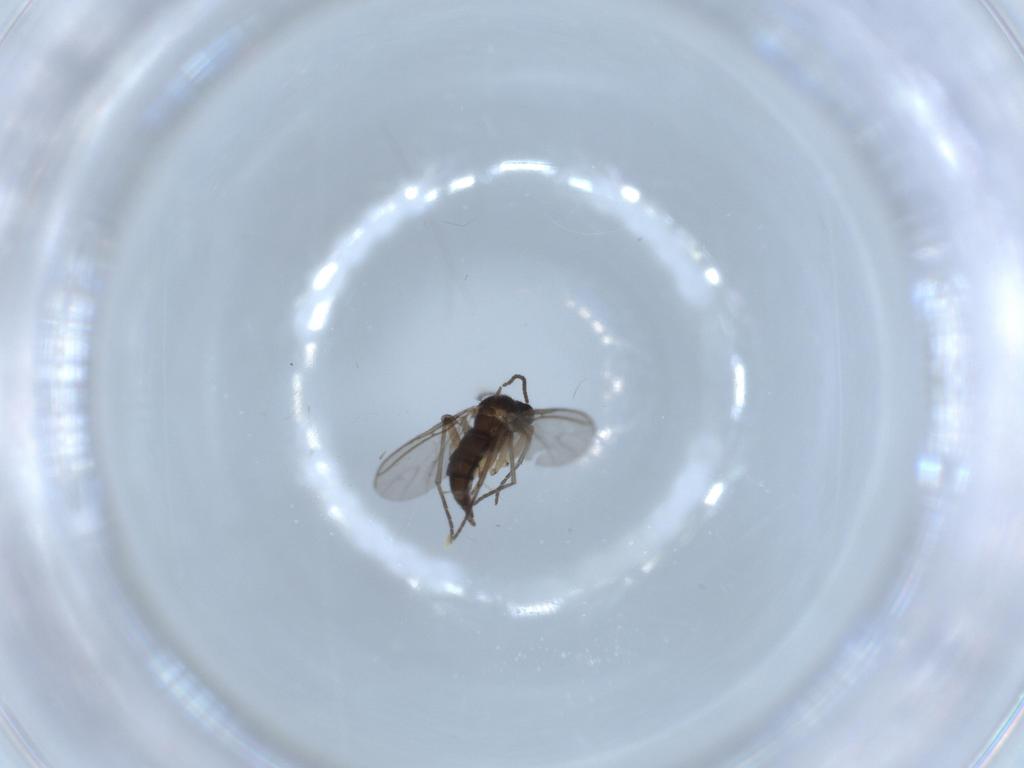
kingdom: Animalia
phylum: Arthropoda
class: Insecta
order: Diptera
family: Sciaridae
